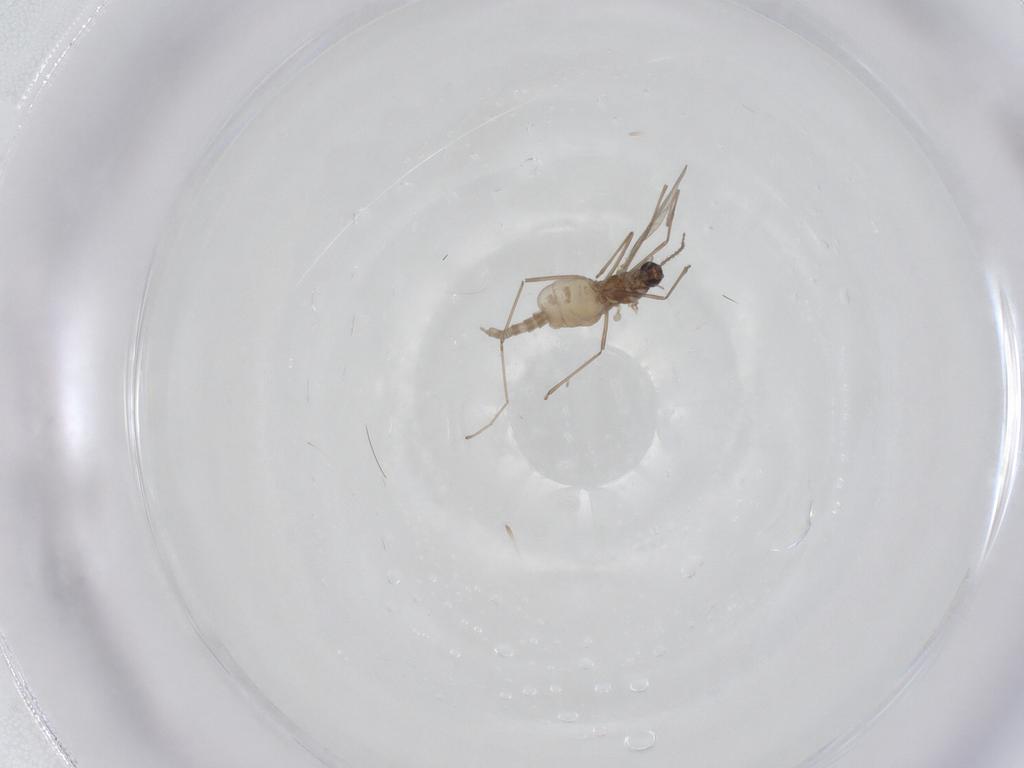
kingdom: Animalia
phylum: Arthropoda
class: Insecta
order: Diptera
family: Cecidomyiidae
